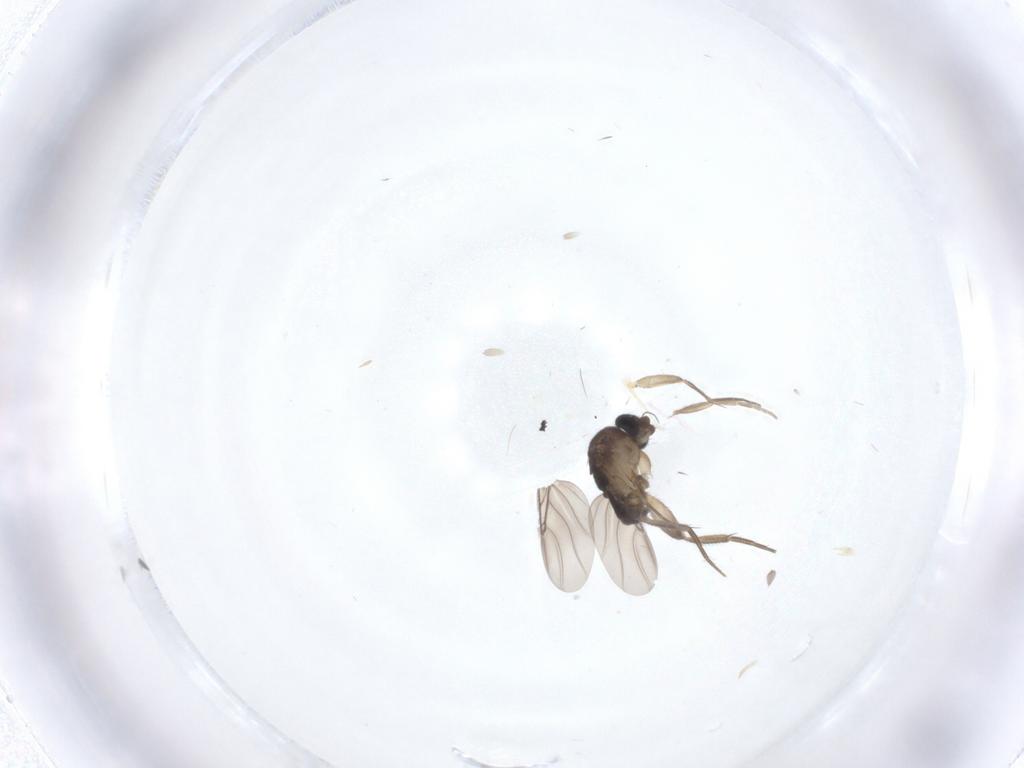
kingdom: Animalia
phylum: Arthropoda
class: Insecta
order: Diptera
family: Phoridae
